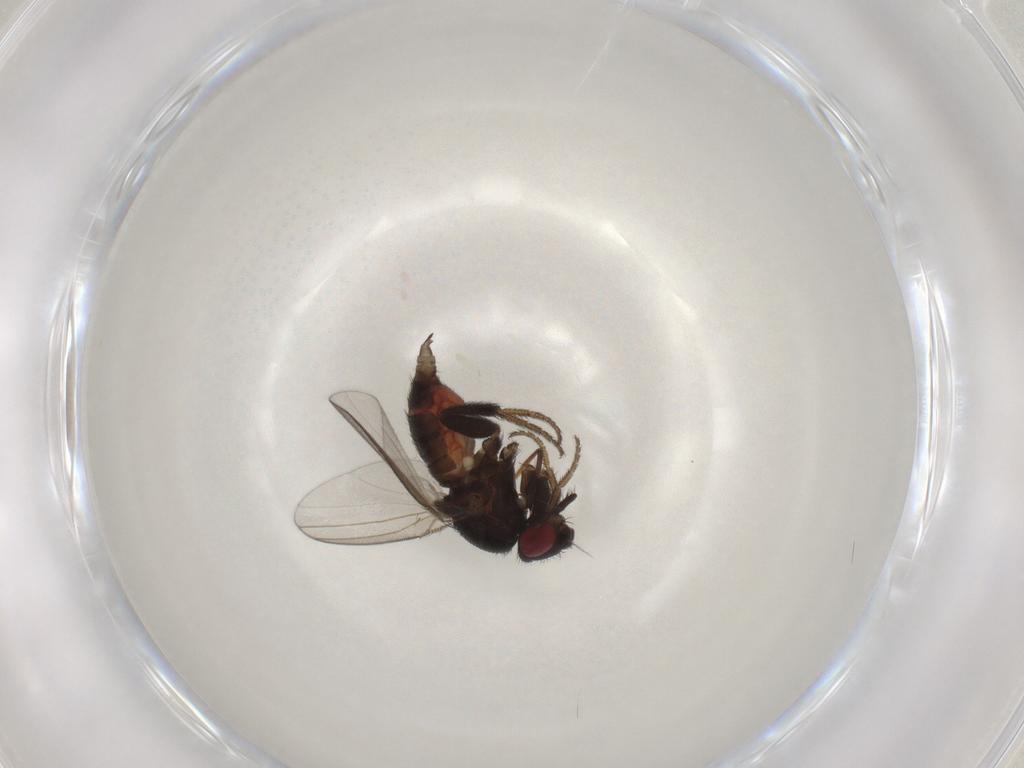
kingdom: Animalia
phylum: Arthropoda
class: Insecta
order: Diptera
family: Milichiidae
